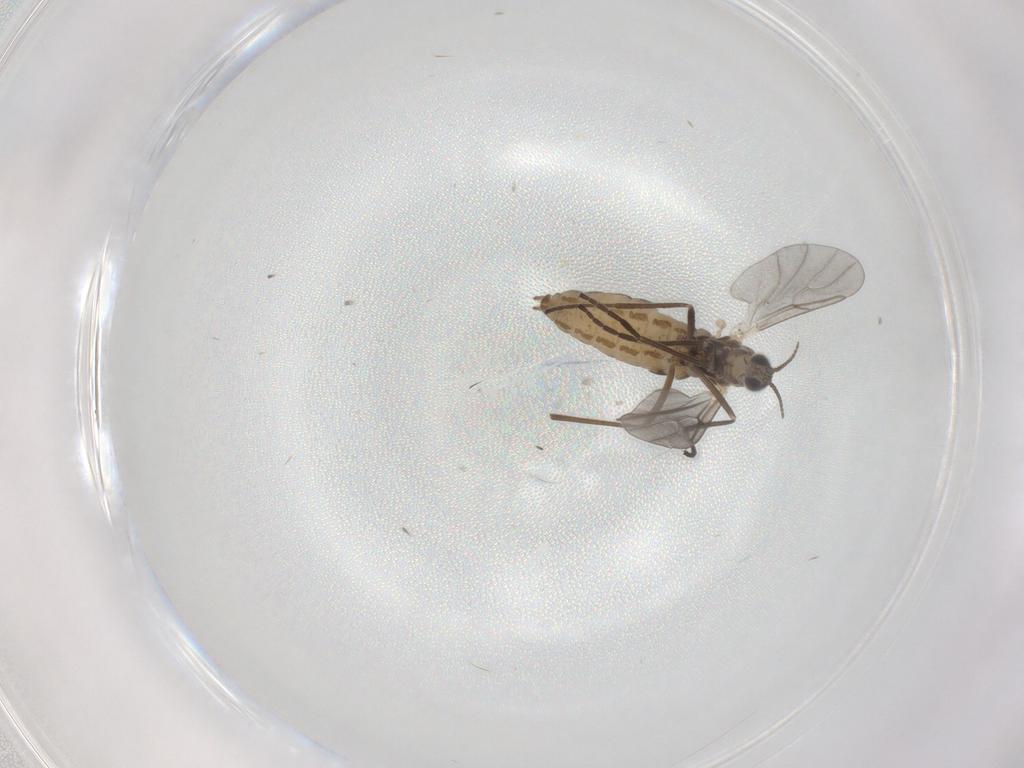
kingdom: Animalia
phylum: Arthropoda
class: Insecta
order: Diptera
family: Cecidomyiidae
